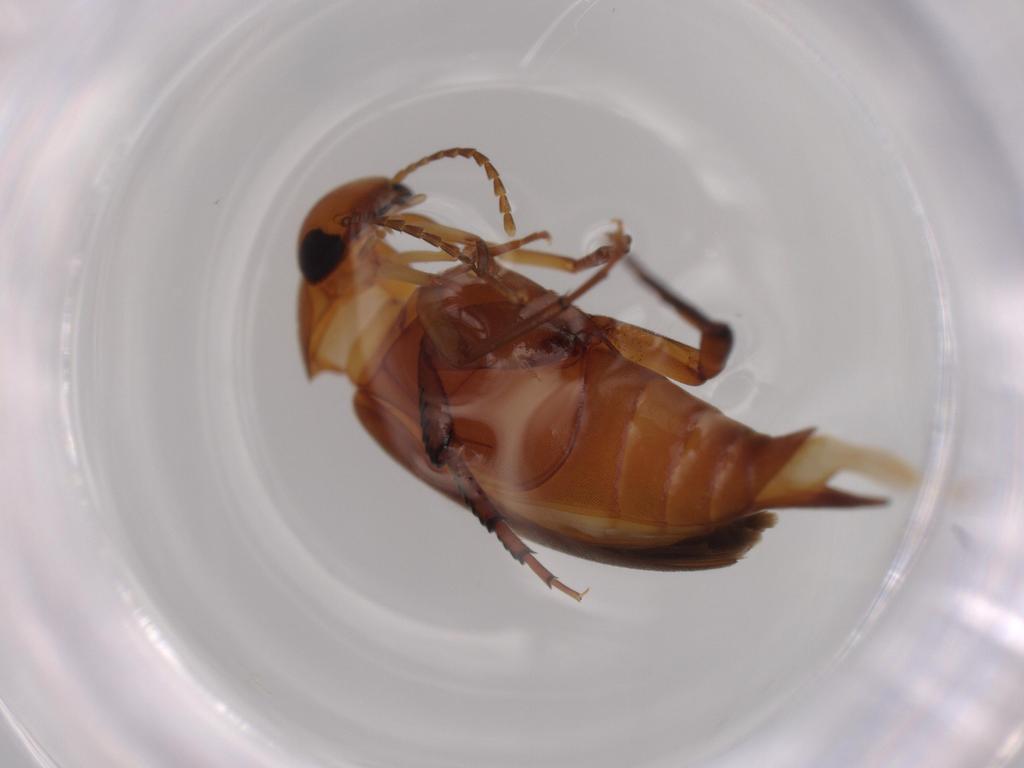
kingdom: Animalia
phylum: Arthropoda
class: Insecta
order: Coleoptera
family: Mordellidae
